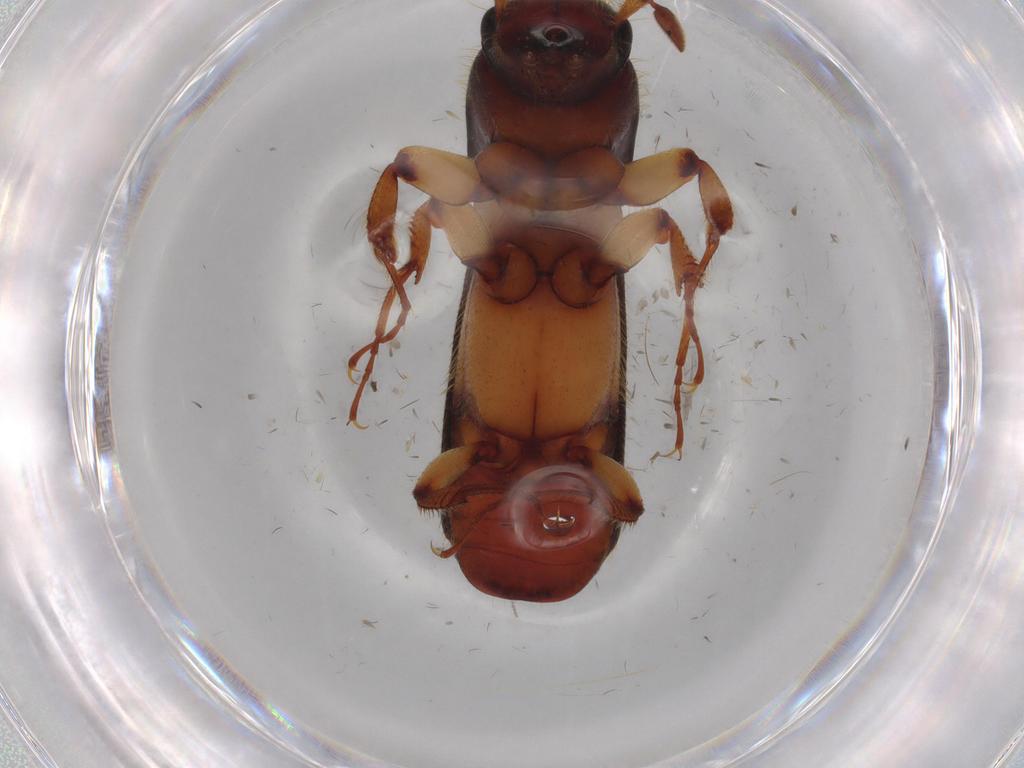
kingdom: Animalia
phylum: Arthropoda
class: Insecta
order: Coleoptera
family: Curculionidae
